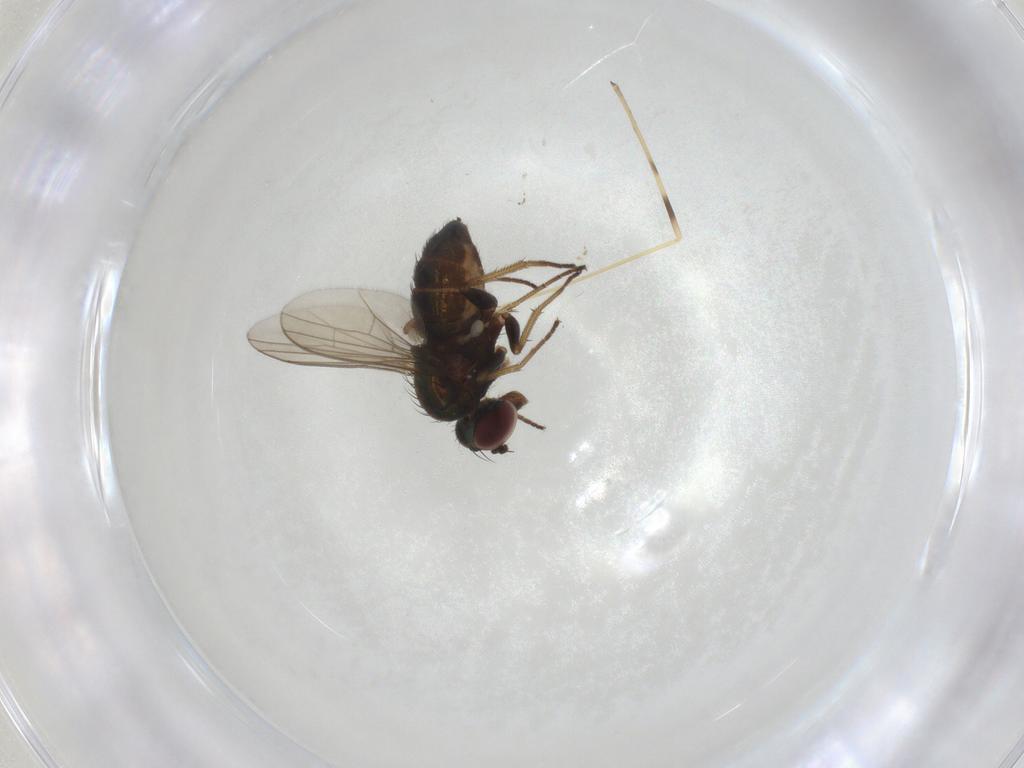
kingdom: Animalia
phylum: Arthropoda
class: Insecta
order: Diptera
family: Dolichopodidae
